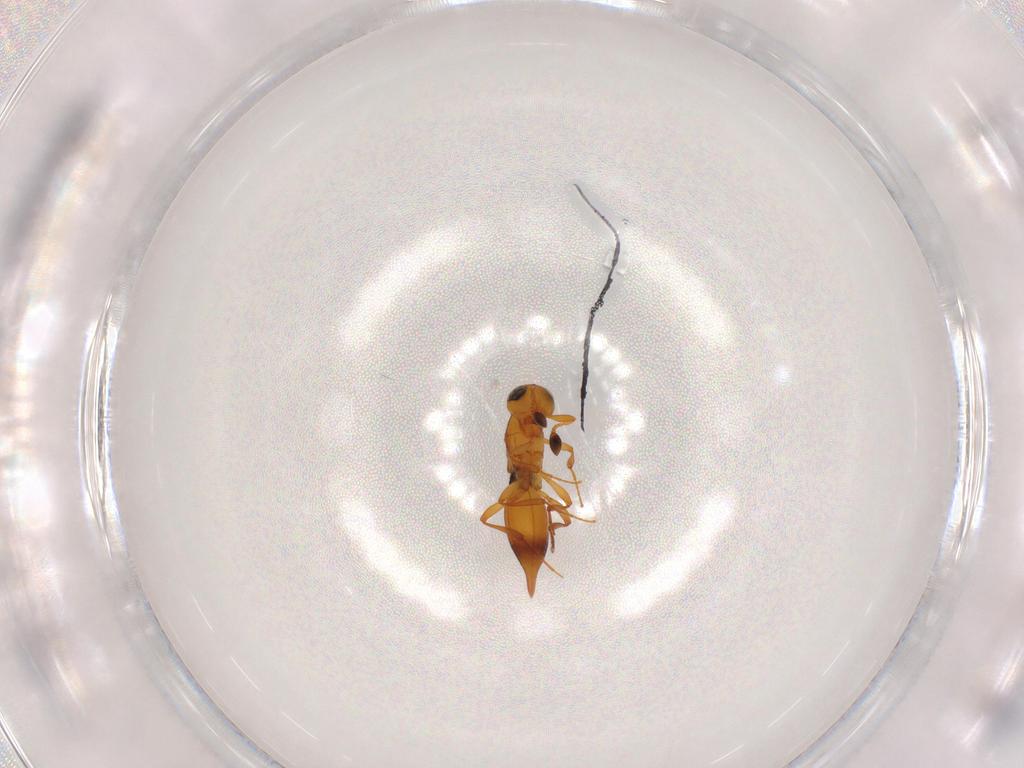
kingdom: Animalia
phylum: Arthropoda
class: Insecta
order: Hymenoptera
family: Platygastridae
